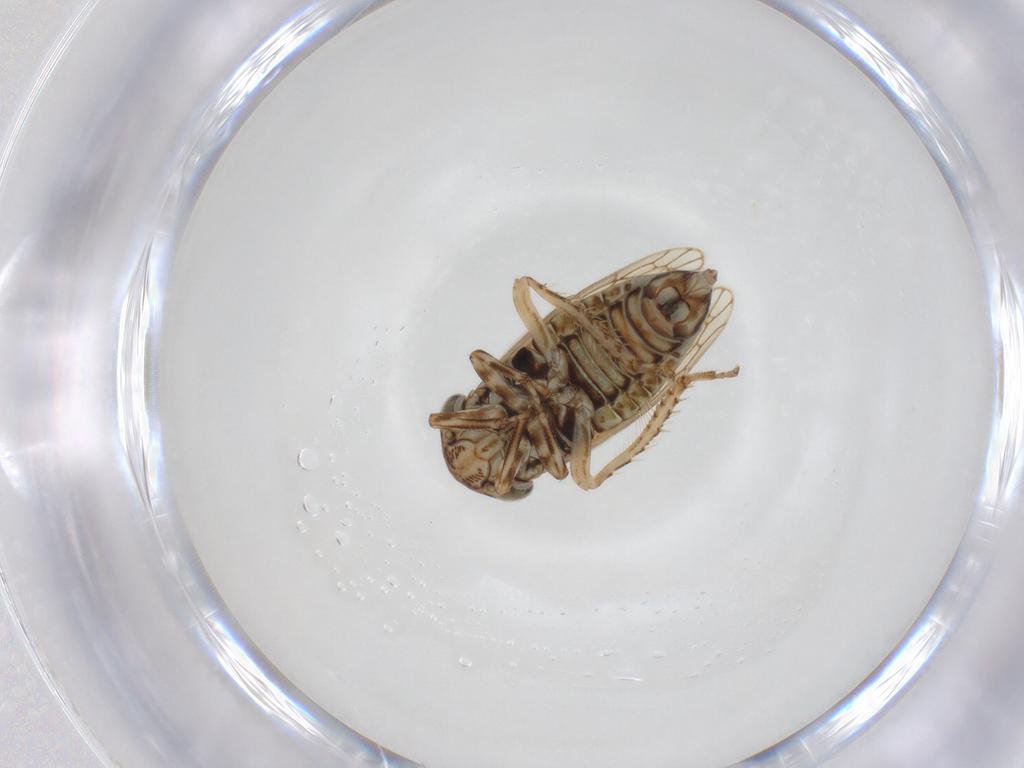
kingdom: Animalia
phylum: Arthropoda
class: Insecta
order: Hemiptera
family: Cicadellidae
